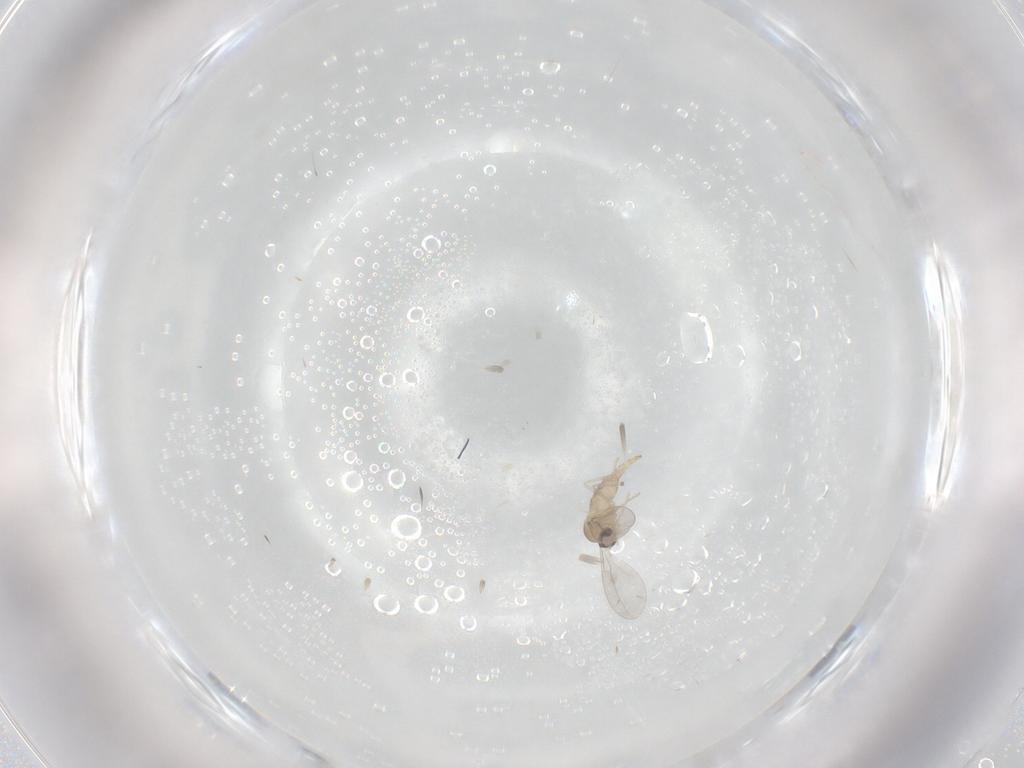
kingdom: Animalia
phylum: Arthropoda
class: Insecta
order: Diptera
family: Cecidomyiidae
